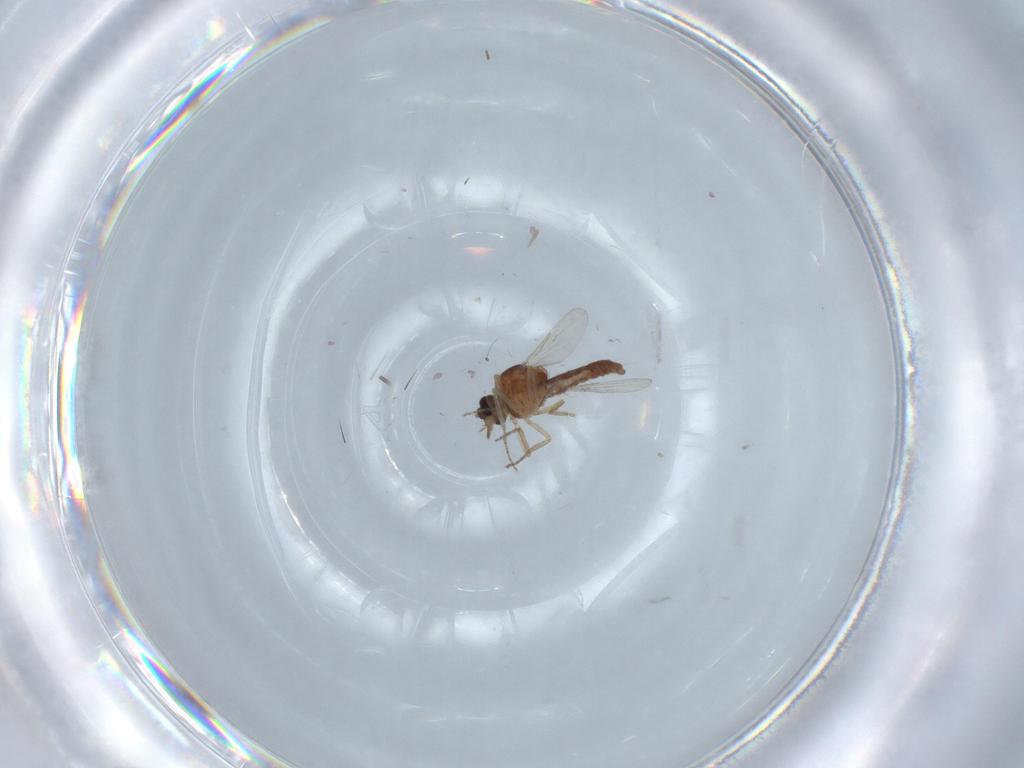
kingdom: Animalia
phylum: Arthropoda
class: Insecta
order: Diptera
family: Ceratopogonidae
